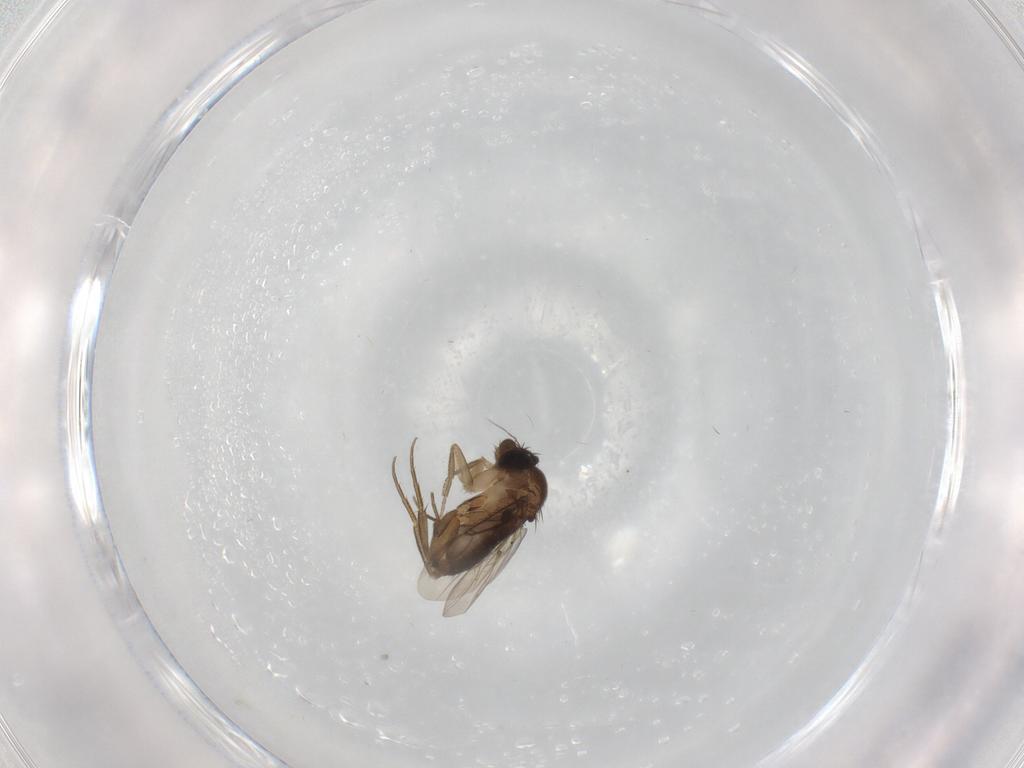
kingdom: Animalia
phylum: Arthropoda
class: Insecta
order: Diptera
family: Phoridae
